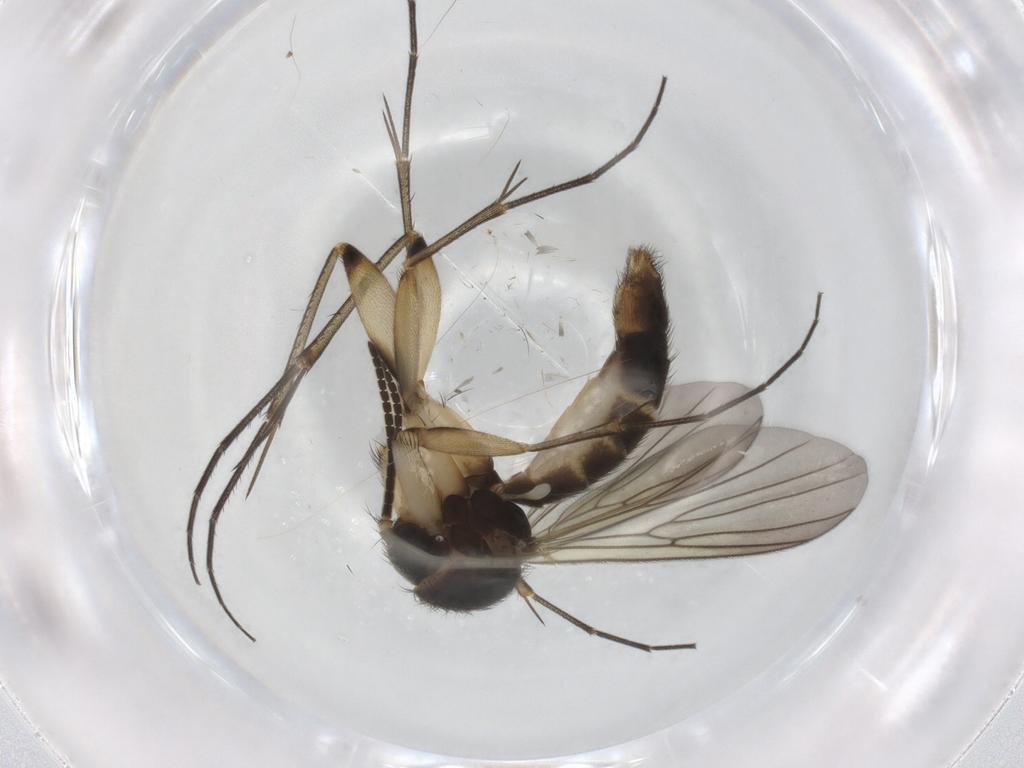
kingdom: Animalia
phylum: Arthropoda
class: Insecta
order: Diptera
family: Mycetophilidae
